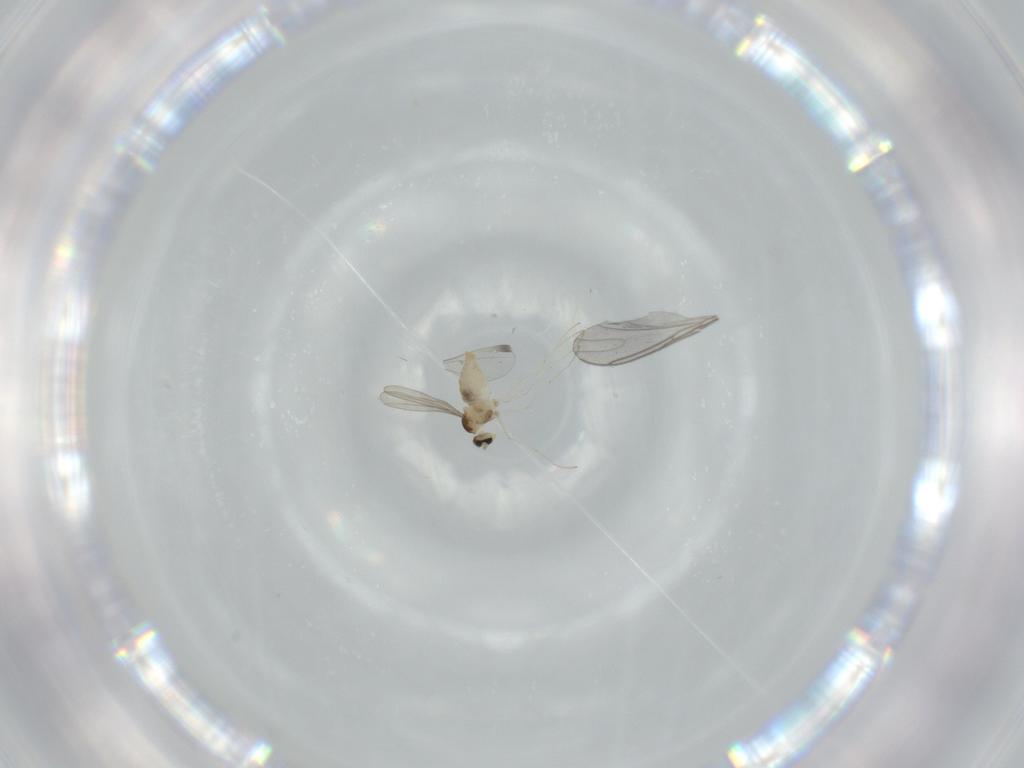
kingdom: Animalia
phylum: Arthropoda
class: Insecta
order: Diptera
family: Cecidomyiidae
